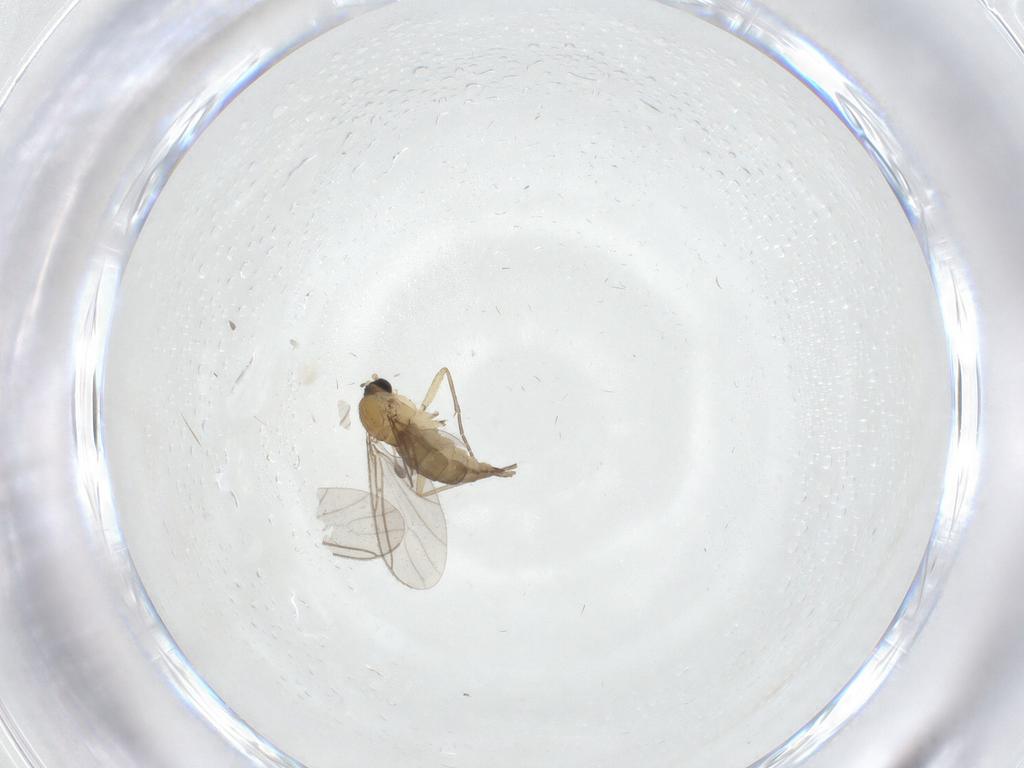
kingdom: Animalia
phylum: Arthropoda
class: Insecta
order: Diptera
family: Sciaridae
